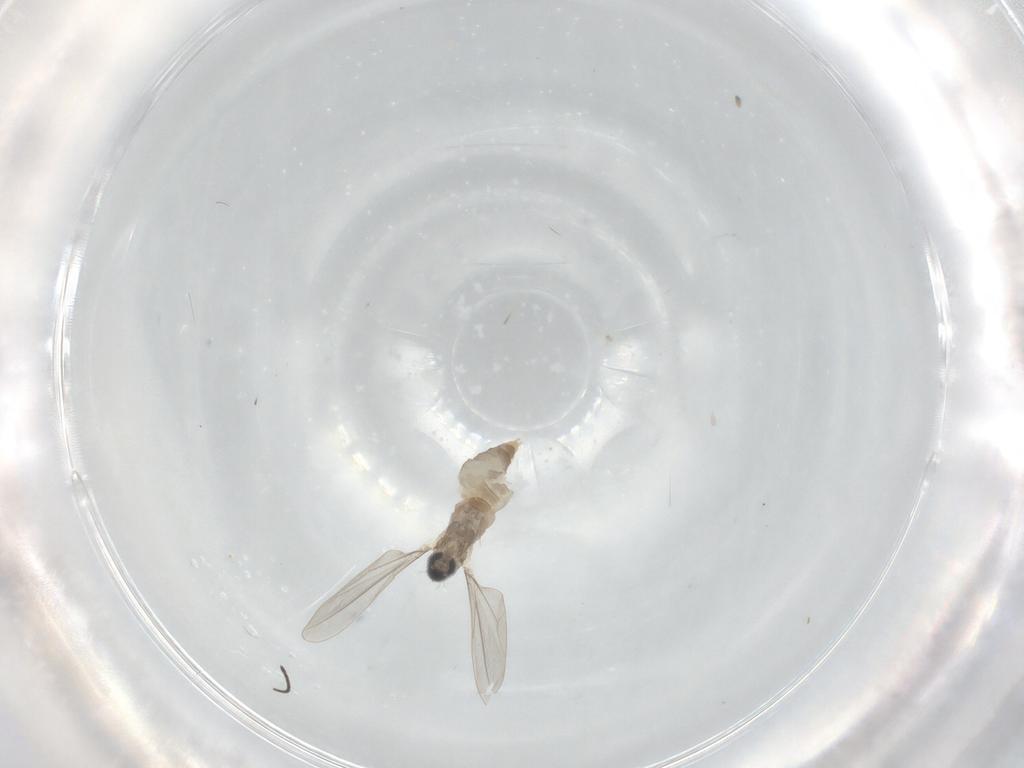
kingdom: Animalia
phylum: Arthropoda
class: Insecta
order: Diptera
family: Cecidomyiidae
